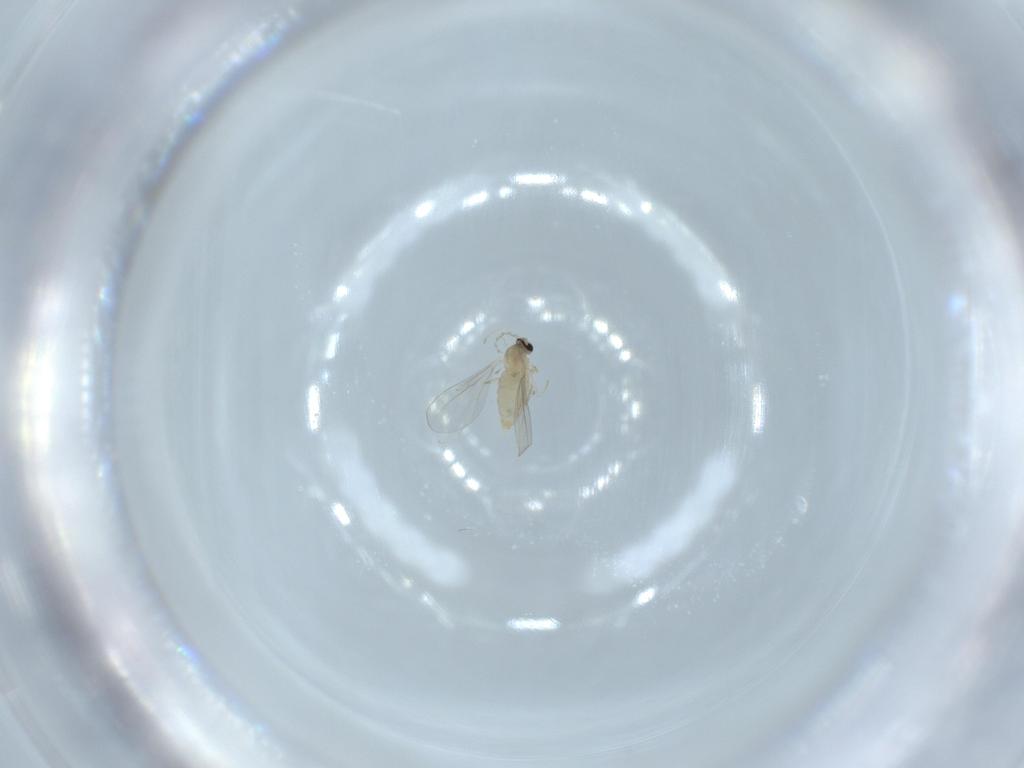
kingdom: Animalia
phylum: Arthropoda
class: Insecta
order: Diptera
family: Cecidomyiidae
